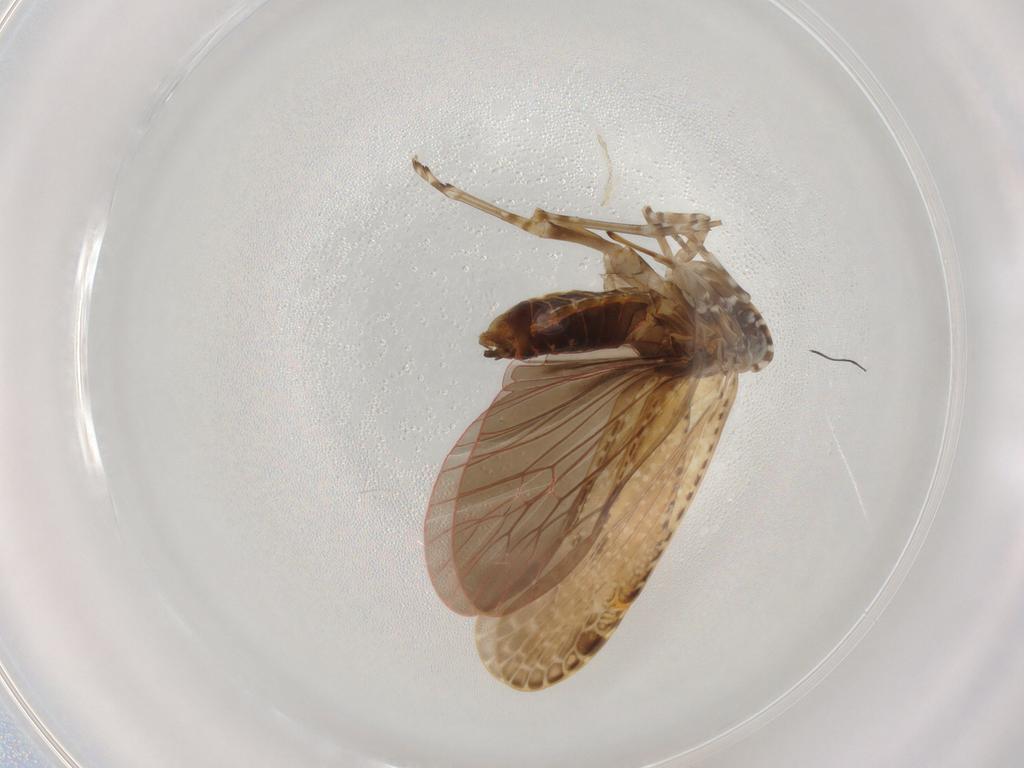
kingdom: Animalia
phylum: Arthropoda
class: Insecta
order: Hemiptera
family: Achilidae
